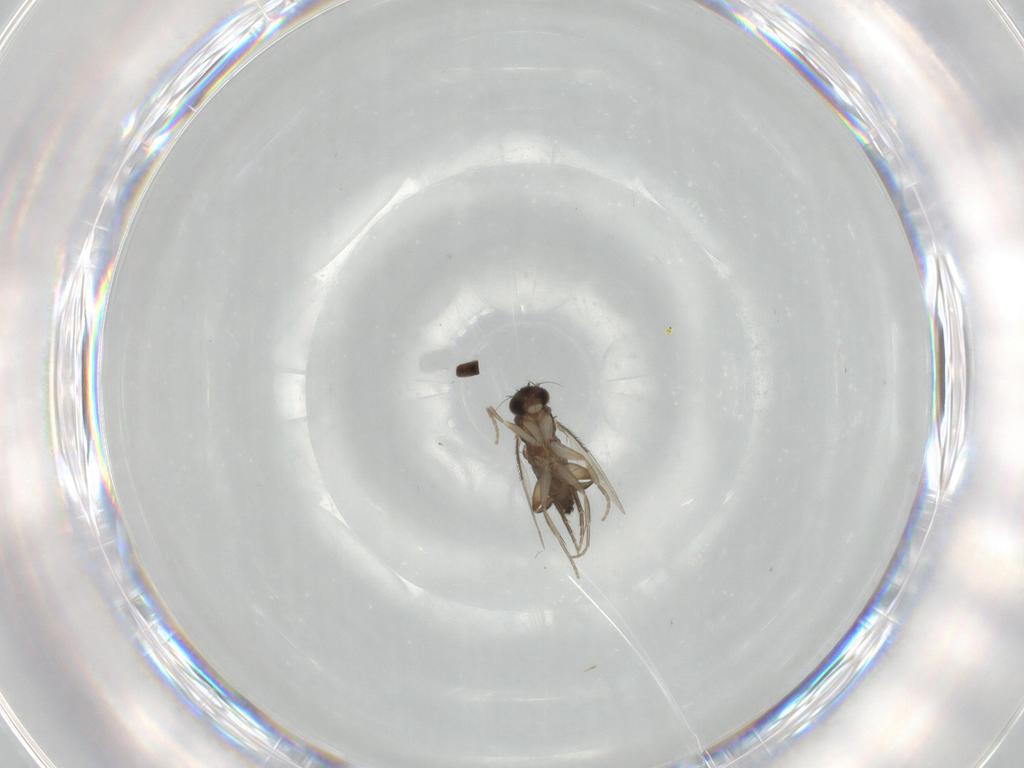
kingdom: Animalia
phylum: Arthropoda
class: Insecta
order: Diptera
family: Phoridae
